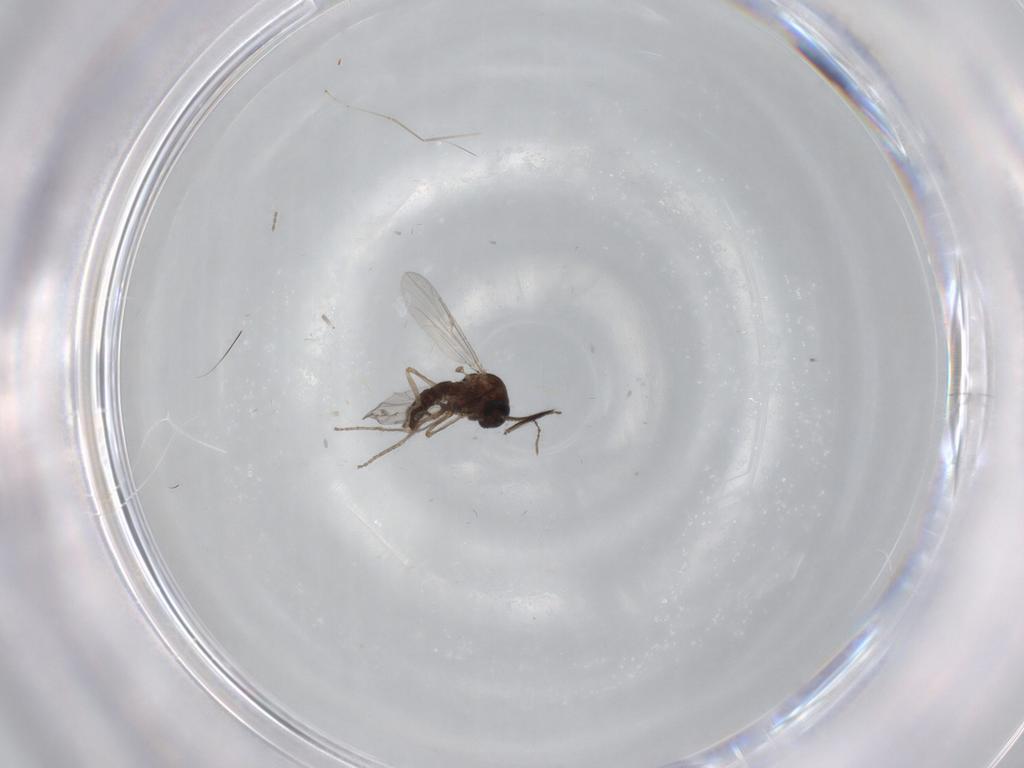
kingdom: Animalia
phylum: Arthropoda
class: Insecta
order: Diptera
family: Ceratopogonidae
